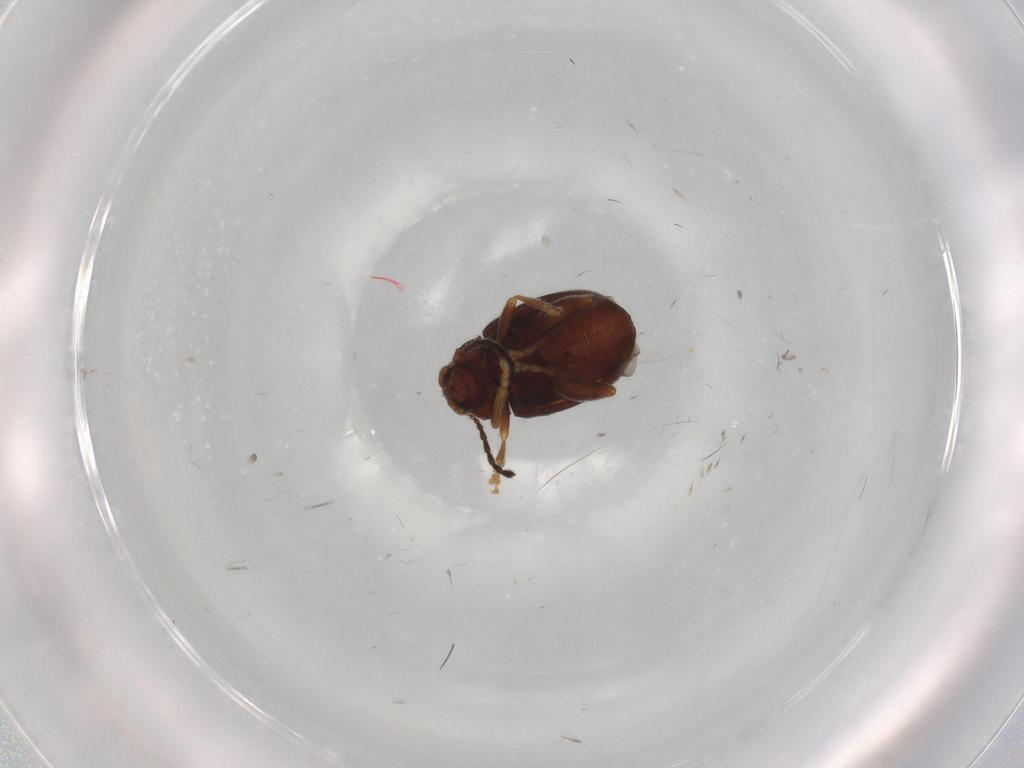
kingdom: Animalia
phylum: Arthropoda
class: Insecta
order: Coleoptera
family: Chrysomelidae
